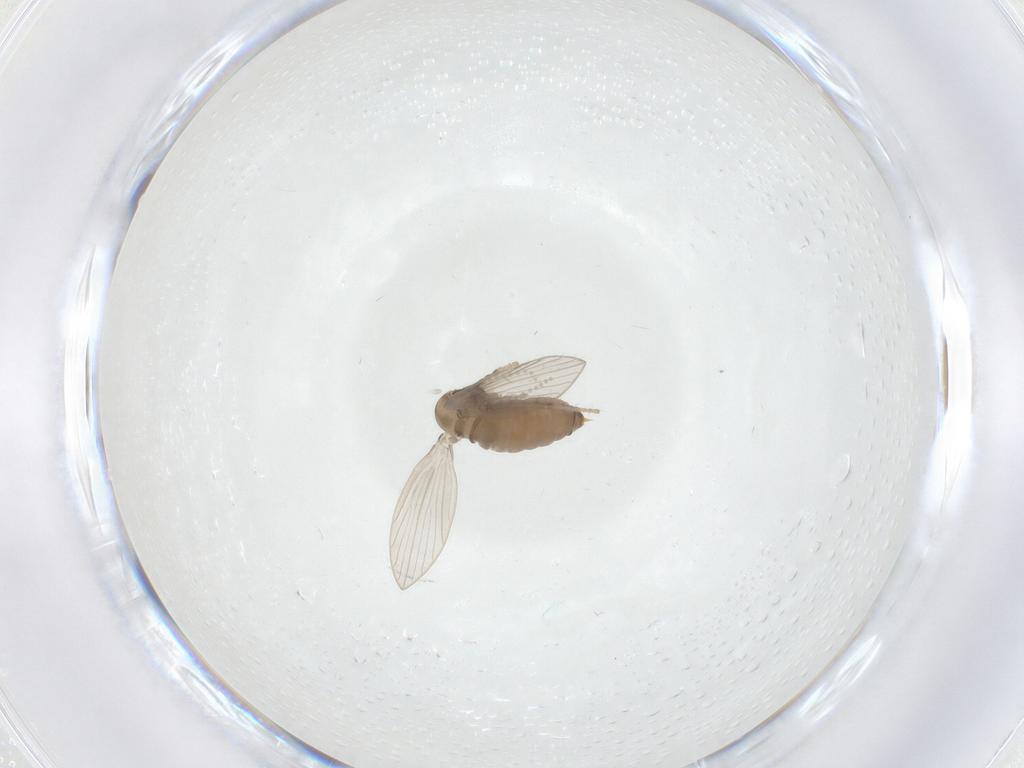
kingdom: Animalia
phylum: Arthropoda
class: Insecta
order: Diptera
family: Psychodidae
